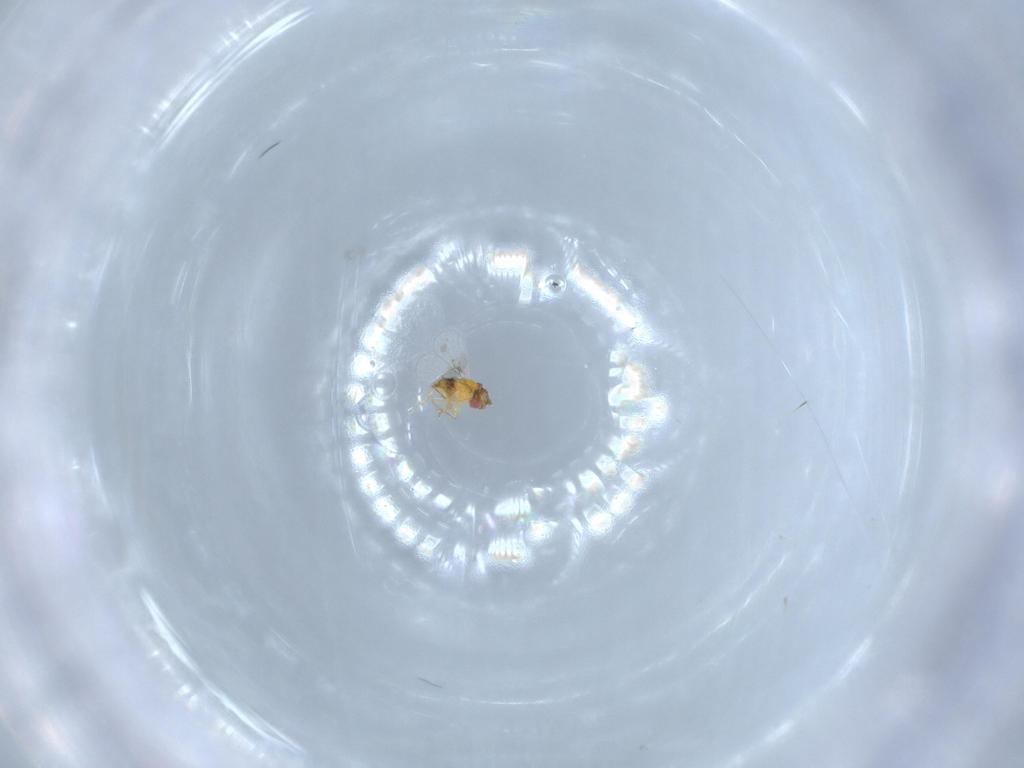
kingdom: Animalia
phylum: Arthropoda
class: Insecta
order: Hymenoptera
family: Trichogrammatidae
